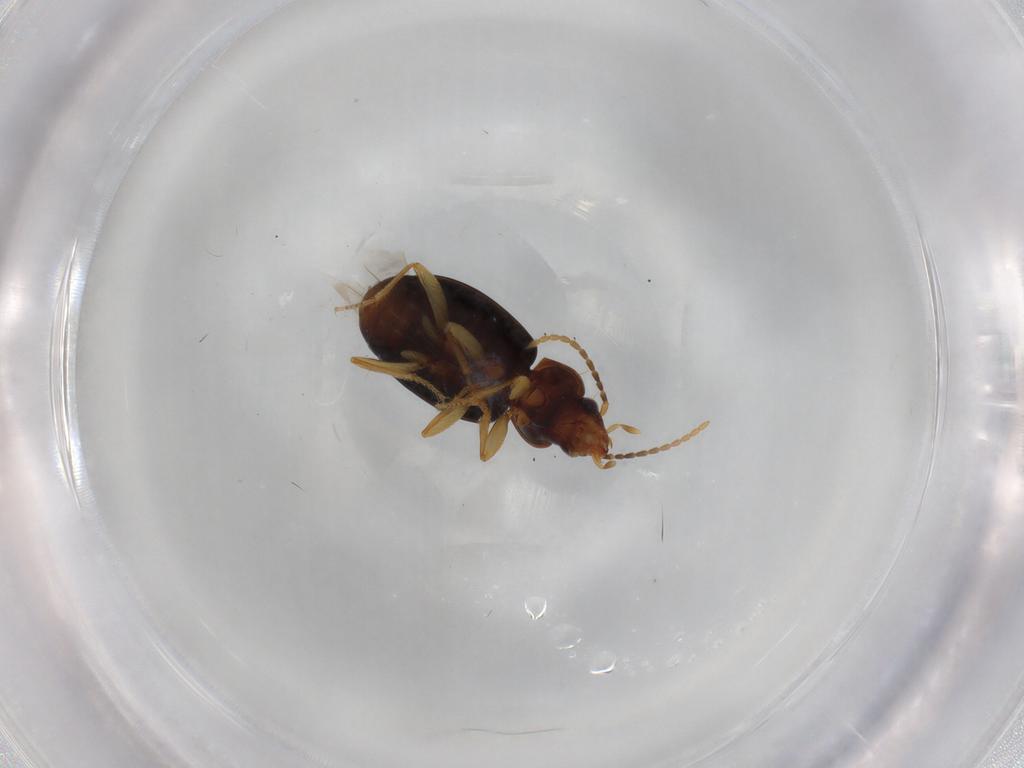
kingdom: Animalia
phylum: Arthropoda
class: Insecta
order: Coleoptera
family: Carabidae
